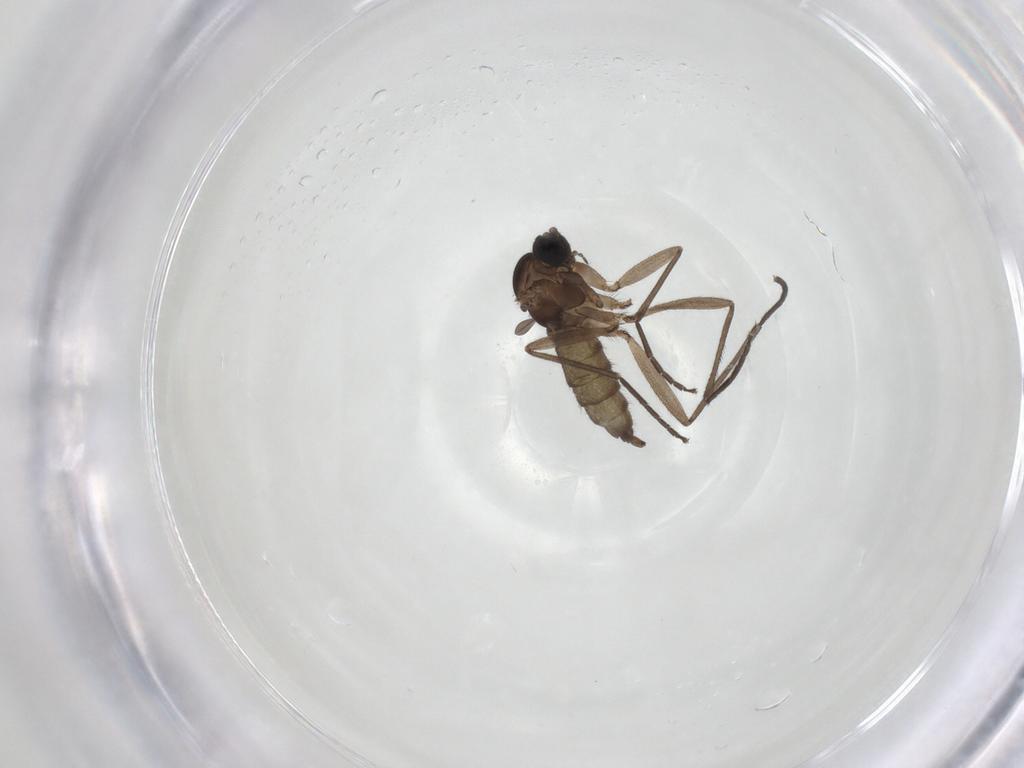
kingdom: Animalia
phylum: Arthropoda
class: Insecta
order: Diptera
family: Sciaridae
